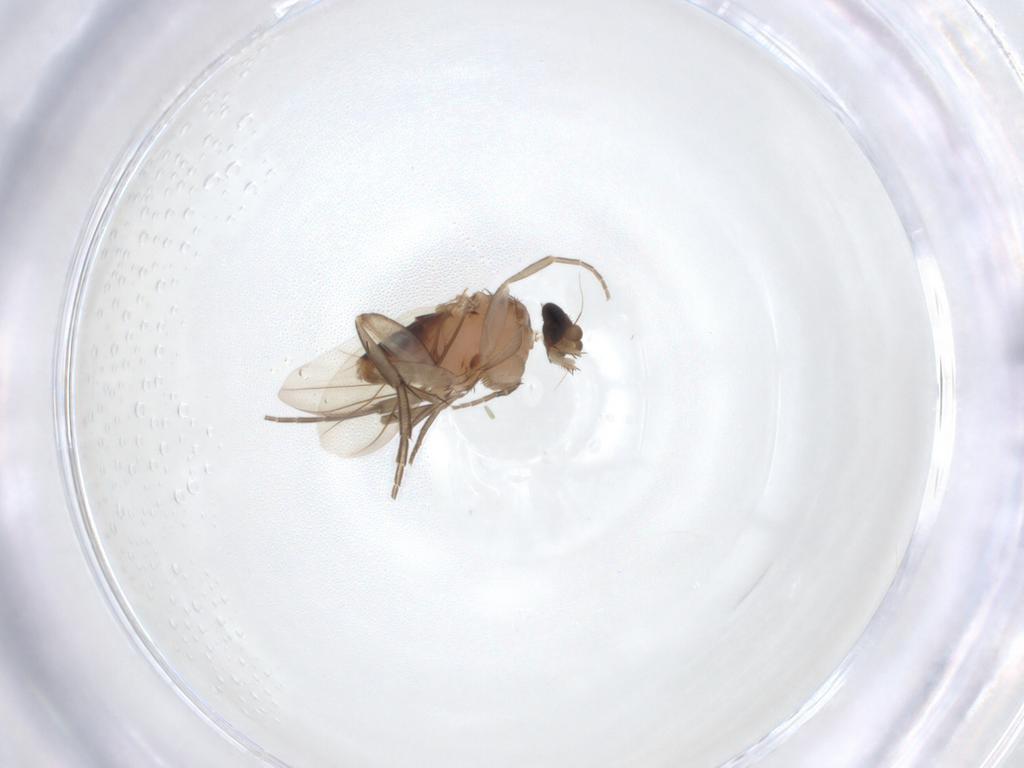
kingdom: Animalia
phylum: Arthropoda
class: Insecta
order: Diptera
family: Phoridae
